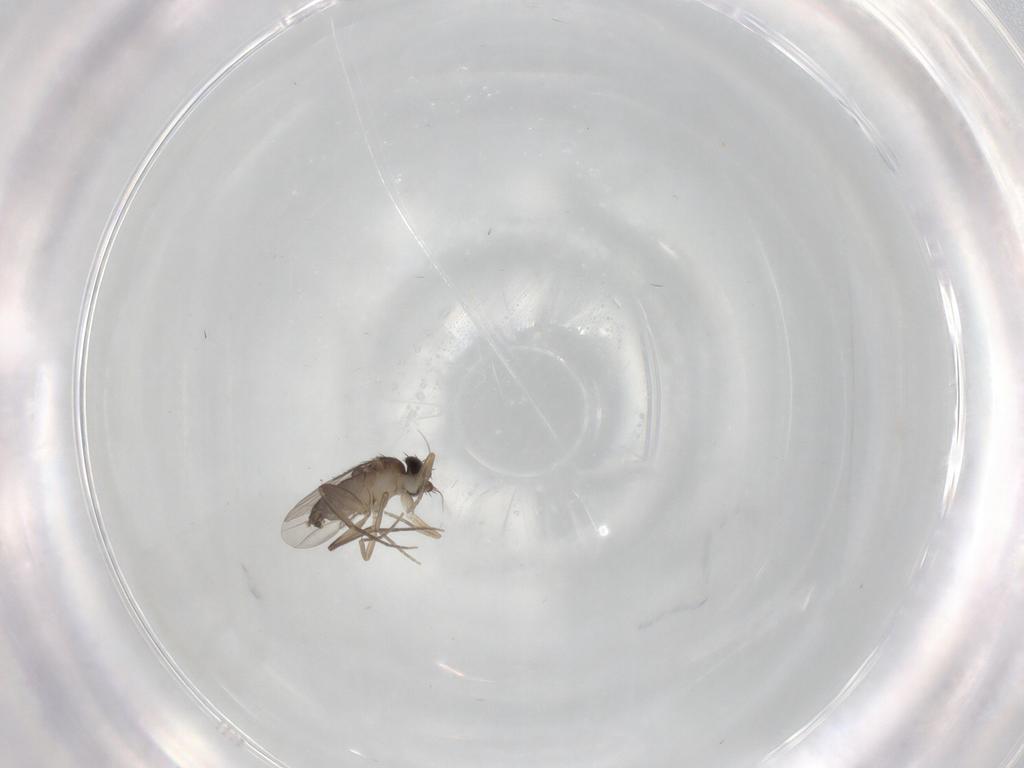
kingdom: Animalia
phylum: Arthropoda
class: Insecta
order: Diptera
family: Phoridae
